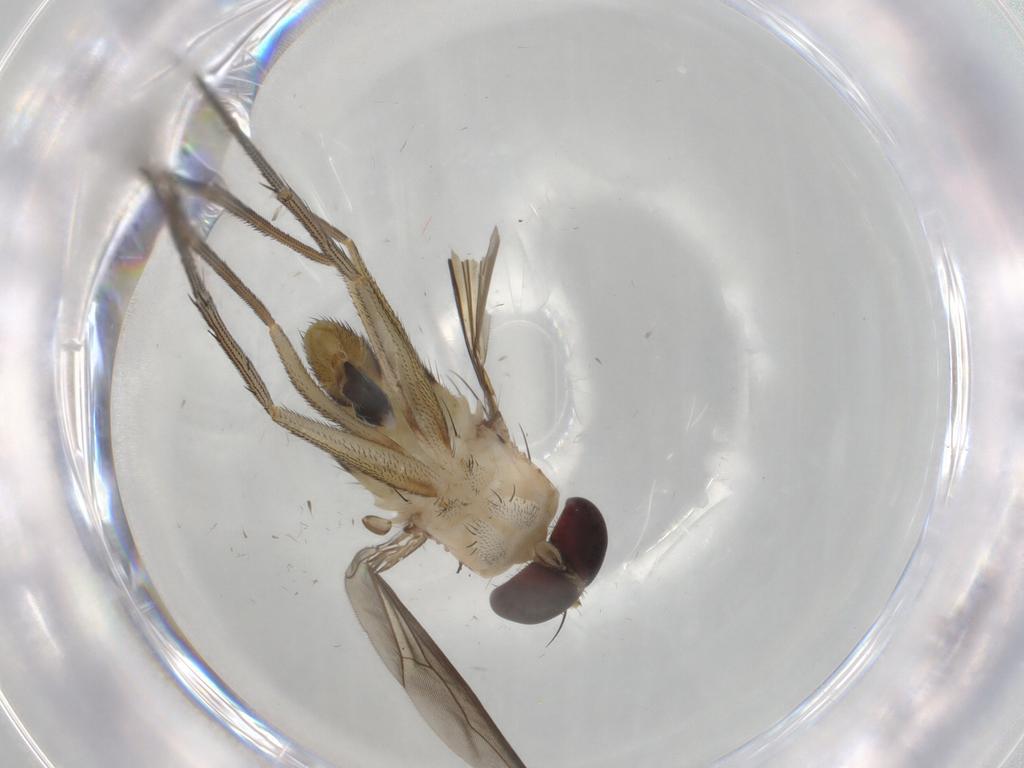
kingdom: Animalia
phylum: Arthropoda
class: Insecta
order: Diptera
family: Dolichopodidae
